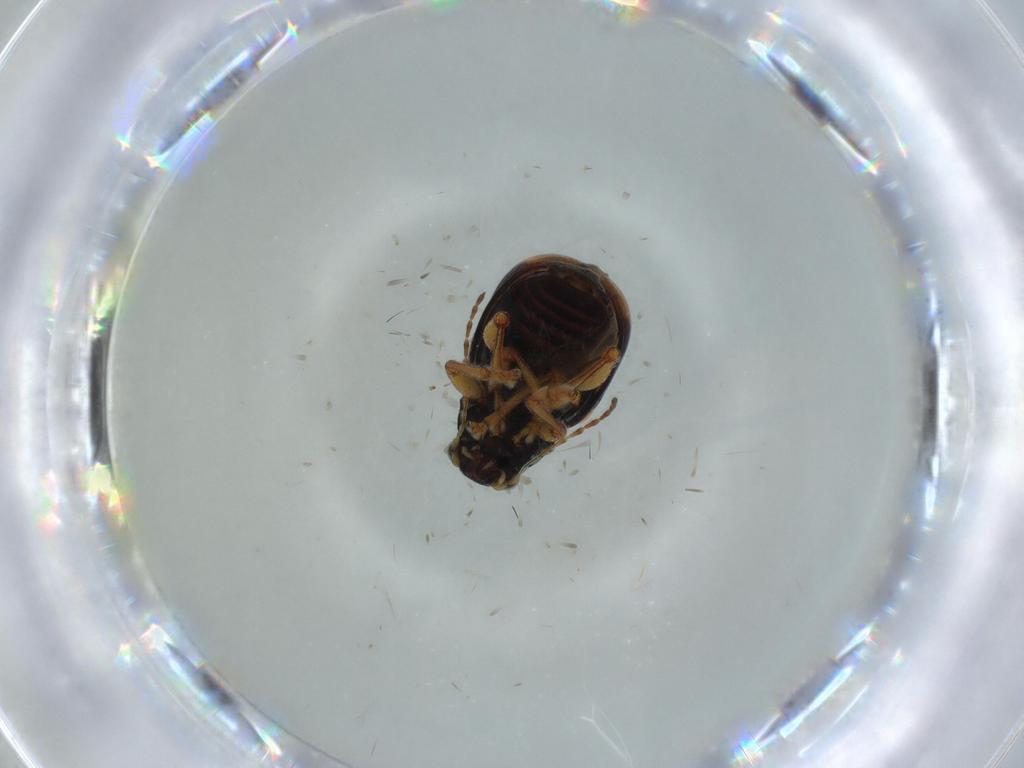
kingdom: Animalia
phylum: Arthropoda
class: Insecta
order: Coleoptera
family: Chrysomelidae
